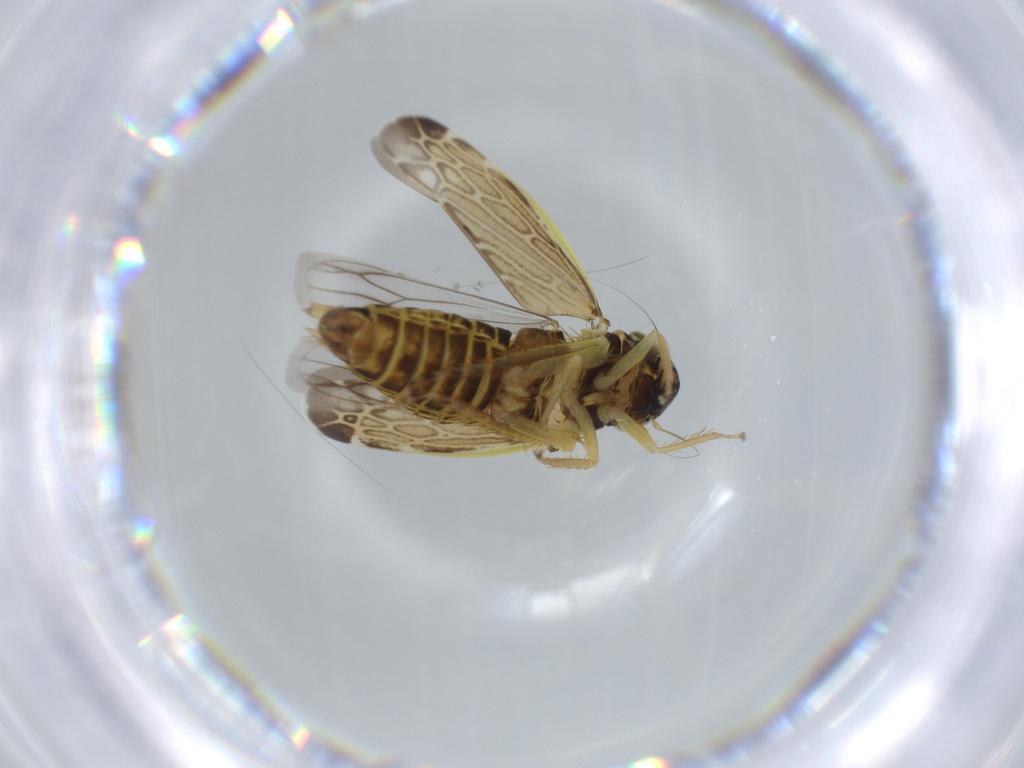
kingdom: Animalia
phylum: Arthropoda
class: Insecta
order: Hemiptera
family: Cicadellidae
